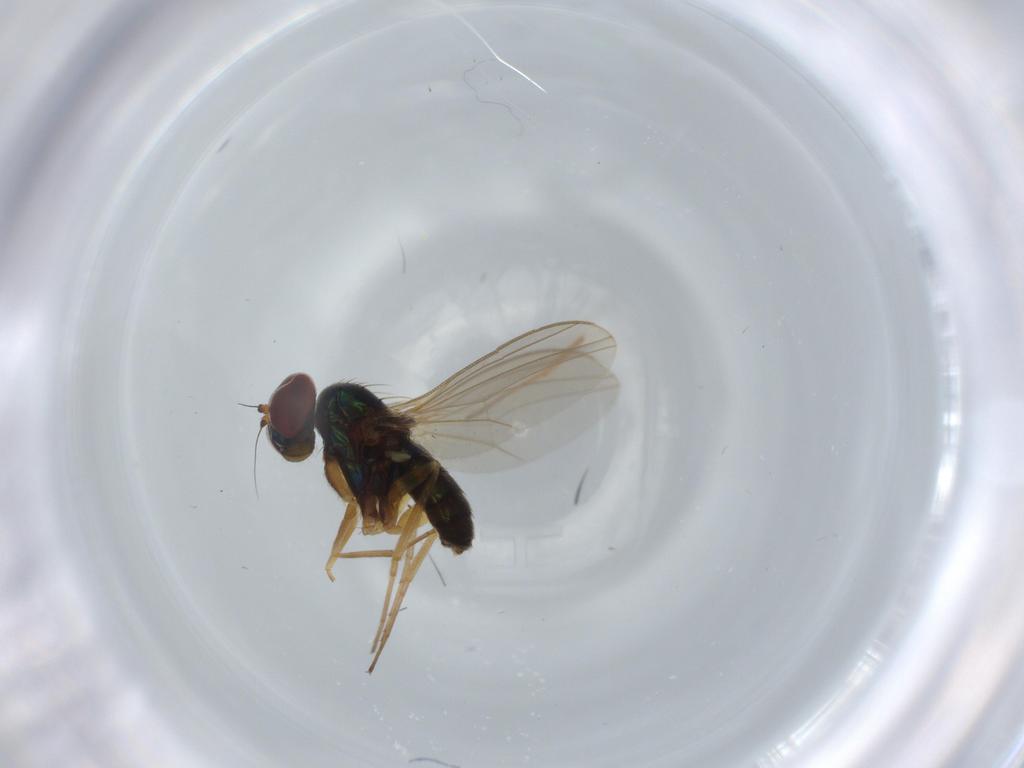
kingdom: Animalia
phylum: Arthropoda
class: Insecta
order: Diptera
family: Dolichopodidae
